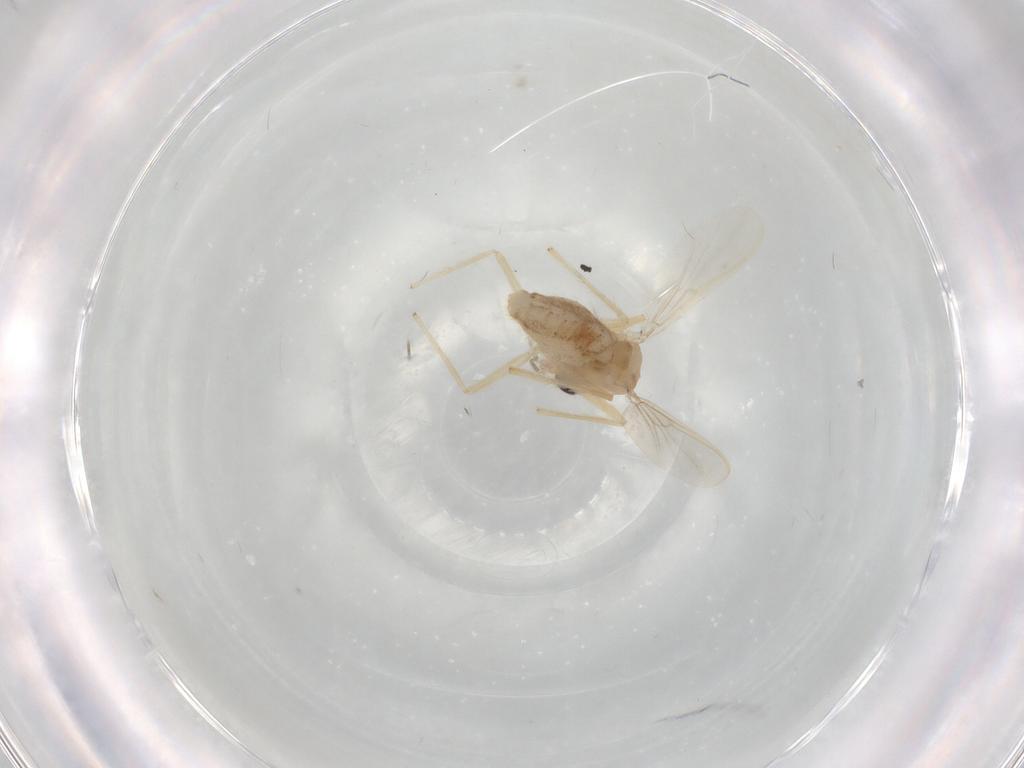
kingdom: Animalia
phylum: Arthropoda
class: Insecta
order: Diptera
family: Chironomidae
